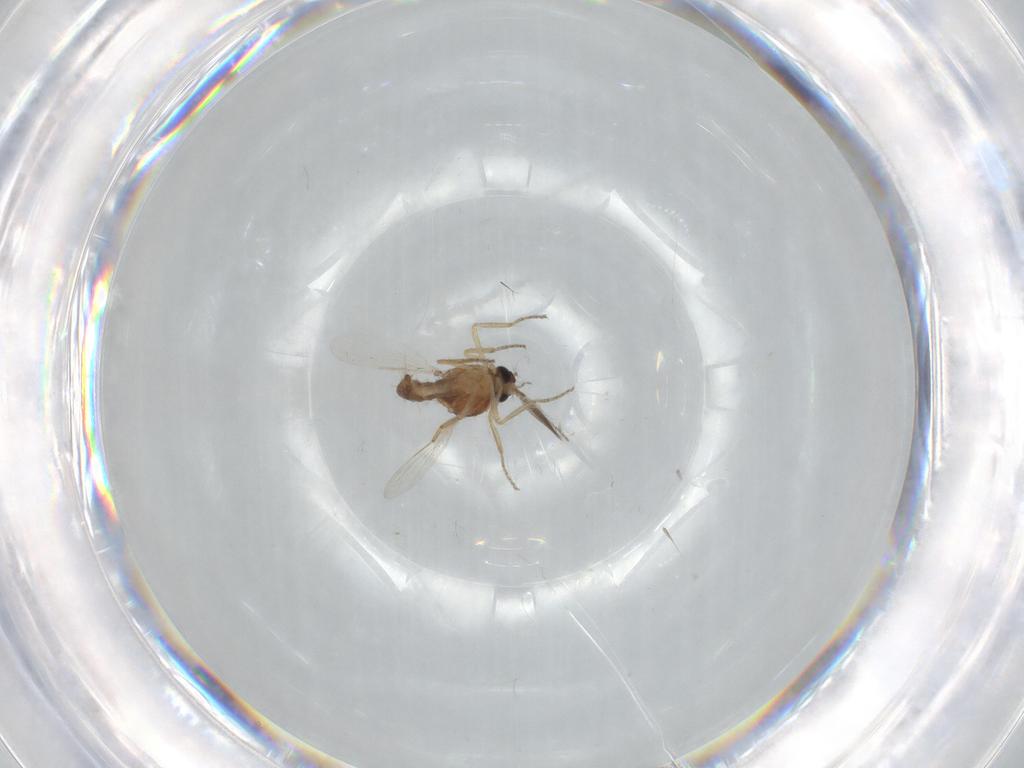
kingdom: Animalia
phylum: Arthropoda
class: Insecta
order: Diptera
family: Ceratopogonidae
